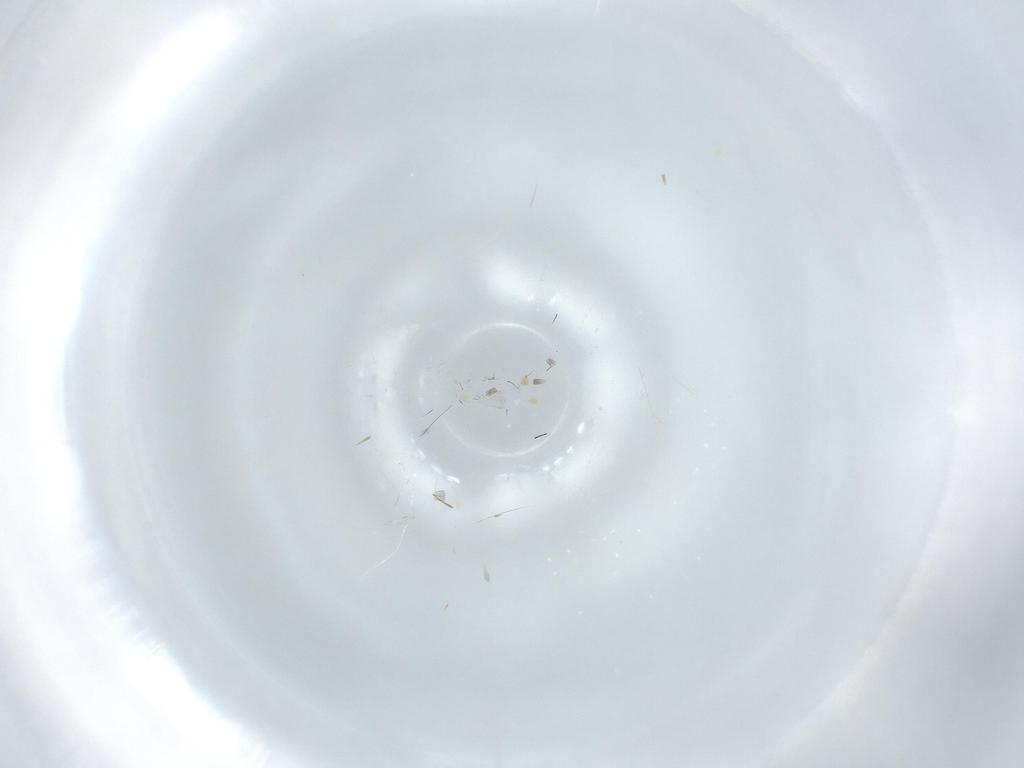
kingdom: Animalia
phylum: Arthropoda
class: Insecta
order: Diptera
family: Cecidomyiidae
